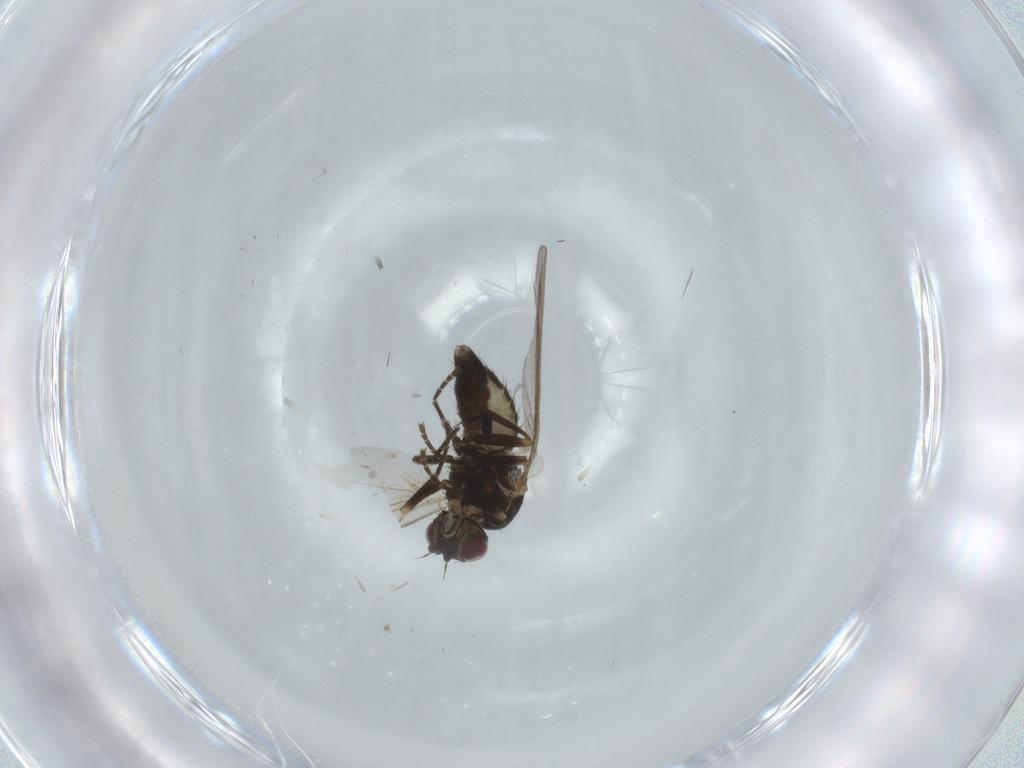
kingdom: Animalia
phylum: Arthropoda
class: Insecta
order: Diptera
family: Agromyzidae
